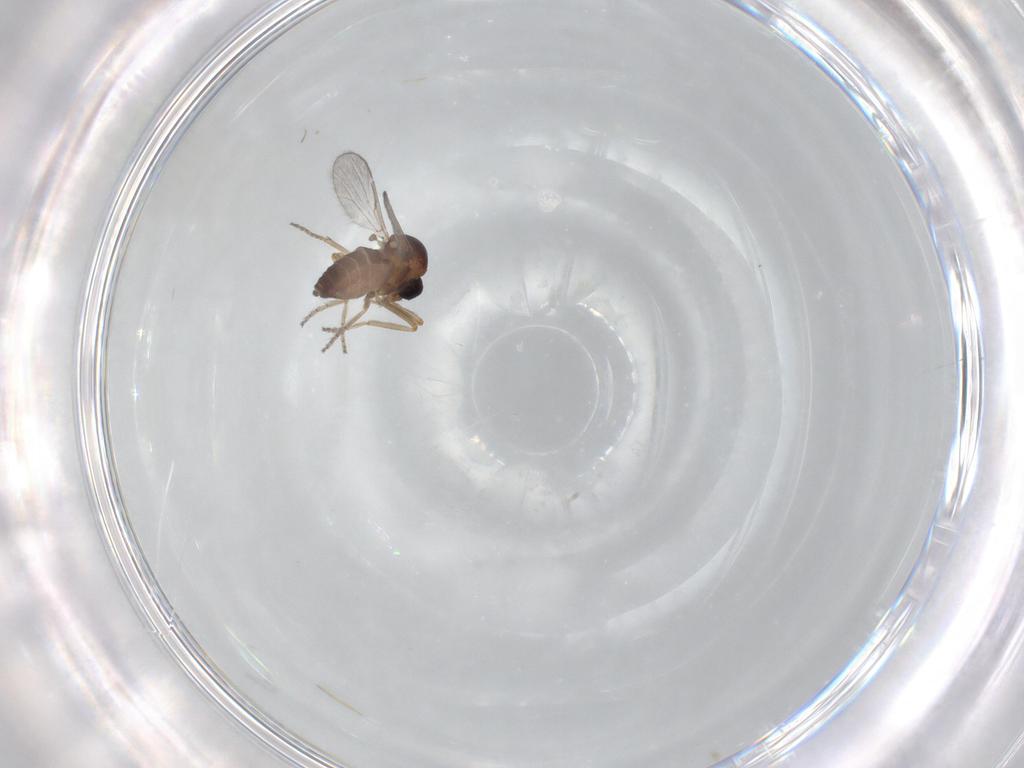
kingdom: Animalia
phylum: Arthropoda
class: Insecta
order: Diptera
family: Ceratopogonidae
